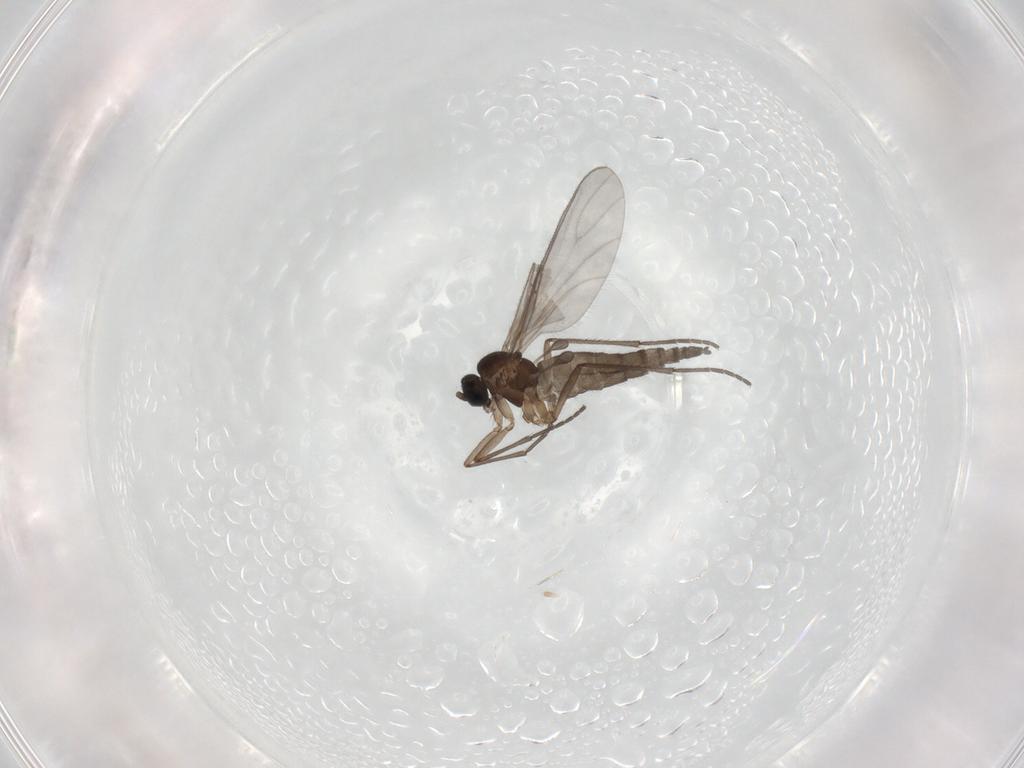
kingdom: Animalia
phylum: Arthropoda
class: Insecta
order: Diptera
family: Sciaridae
